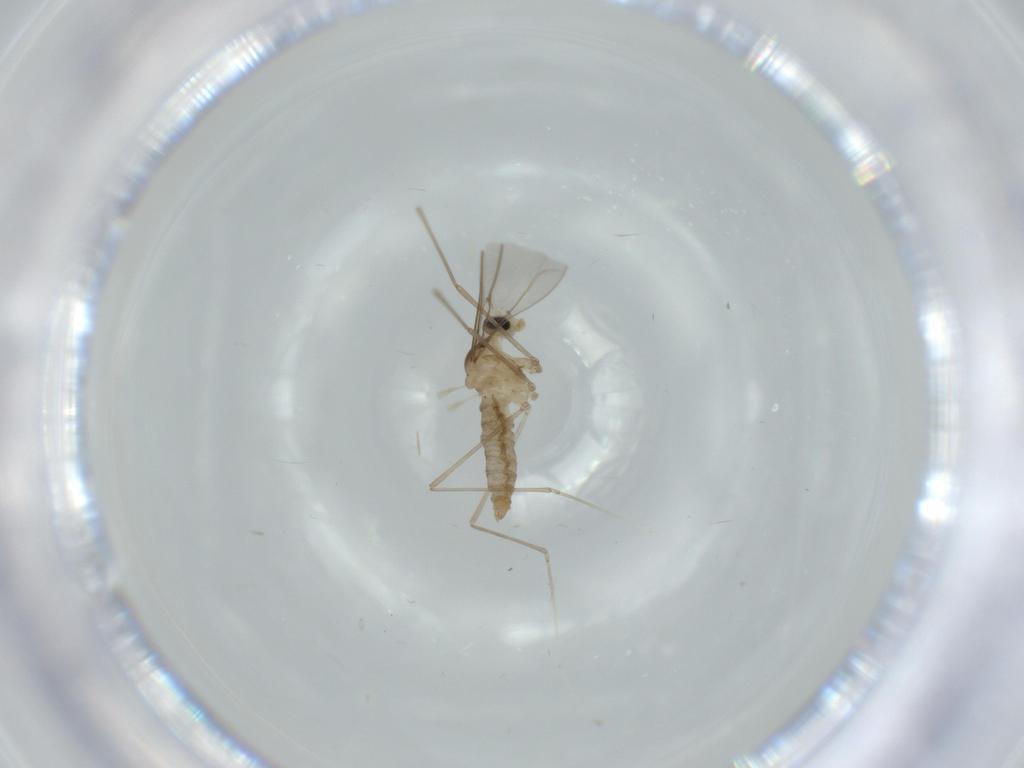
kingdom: Animalia
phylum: Arthropoda
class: Insecta
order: Diptera
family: Cecidomyiidae
